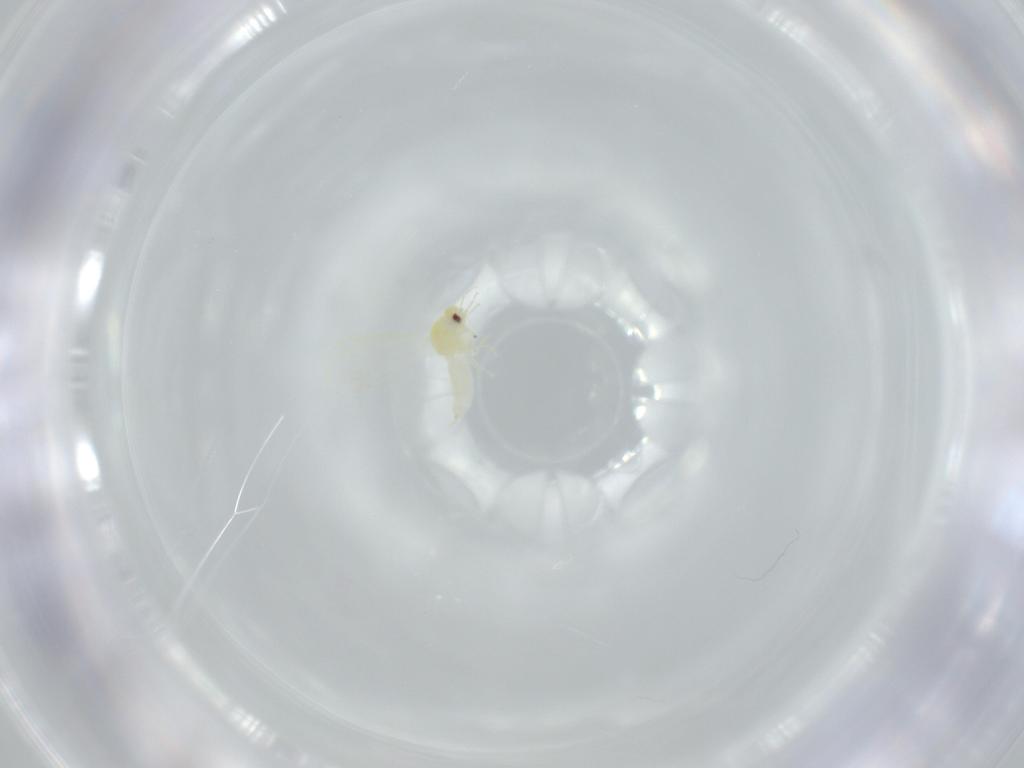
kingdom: Animalia
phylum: Arthropoda
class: Insecta
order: Hemiptera
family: Aleyrodidae
